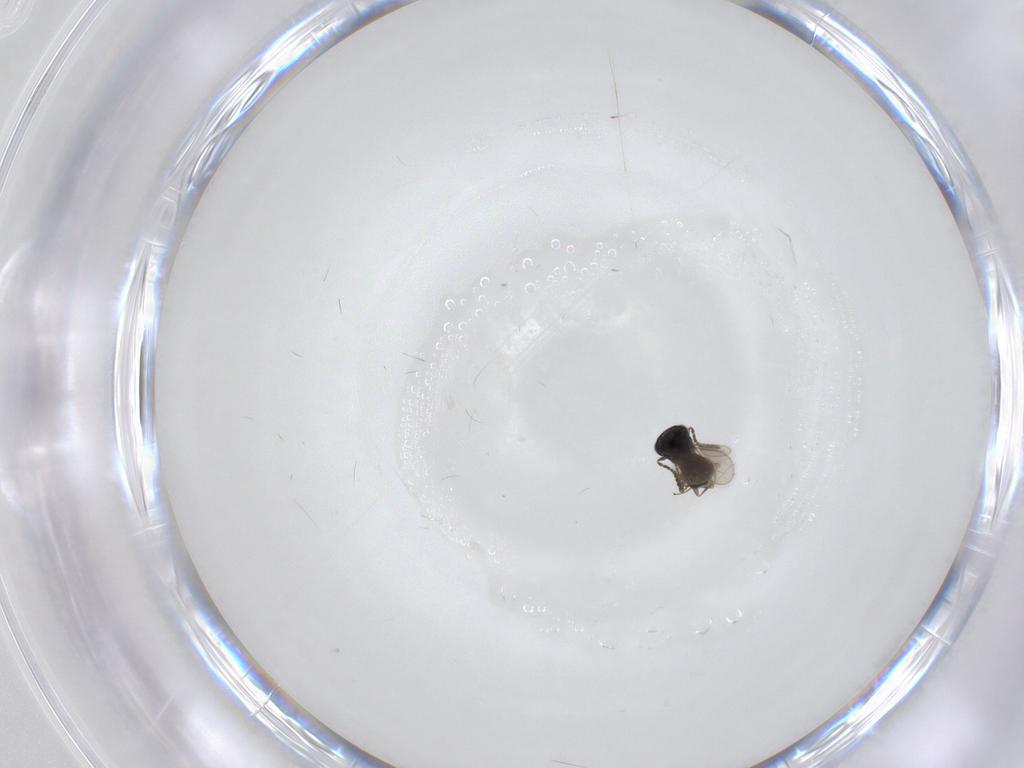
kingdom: Animalia
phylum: Arthropoda
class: Insecta
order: Hymenoptera
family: Scelionidae
